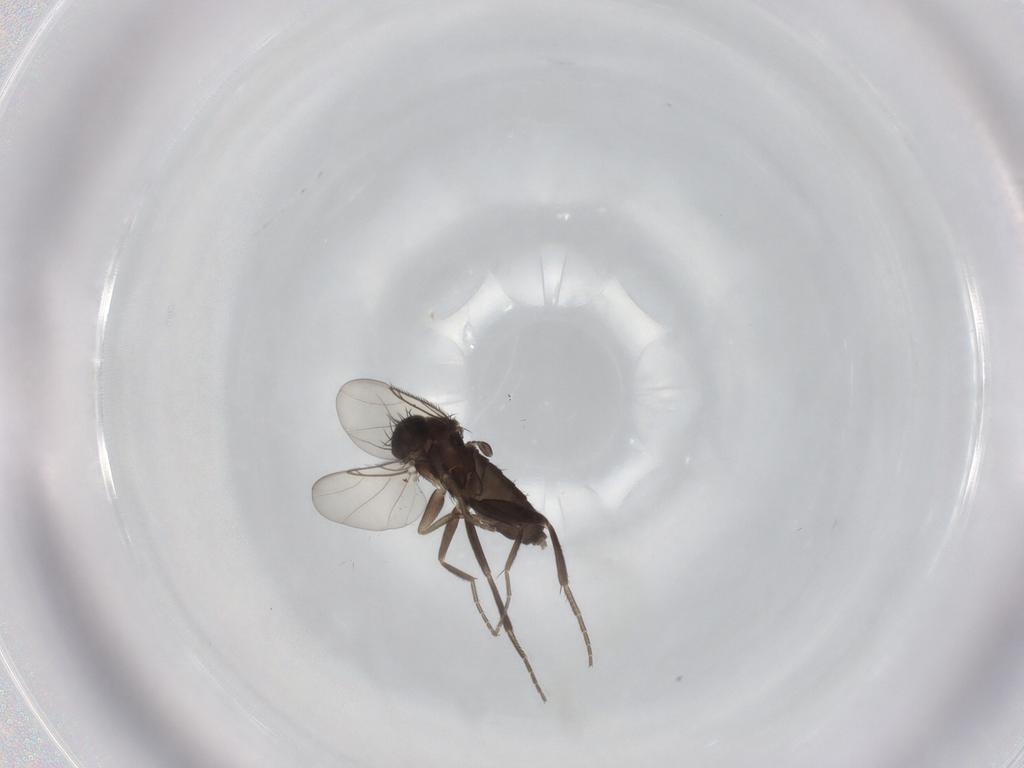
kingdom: Animalia
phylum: Arthropoda
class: Insecta
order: Diptera
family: Phoridae
